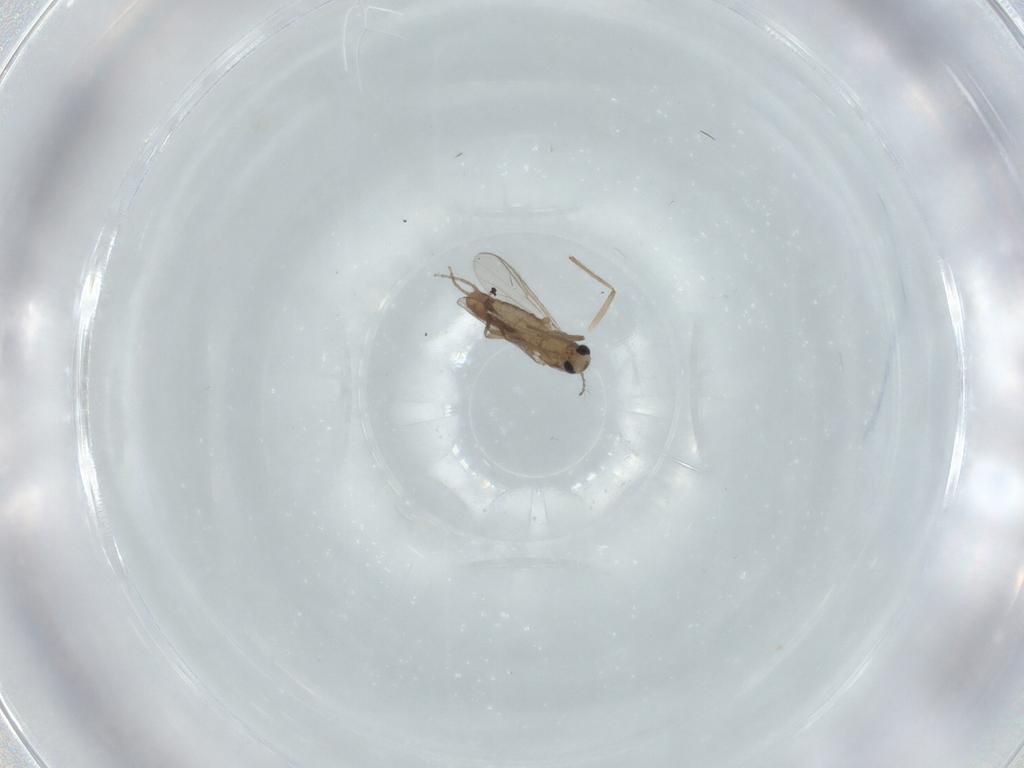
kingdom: Animalia
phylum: Arthropoda
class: Insecta
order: Diptera
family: Chironomidae
